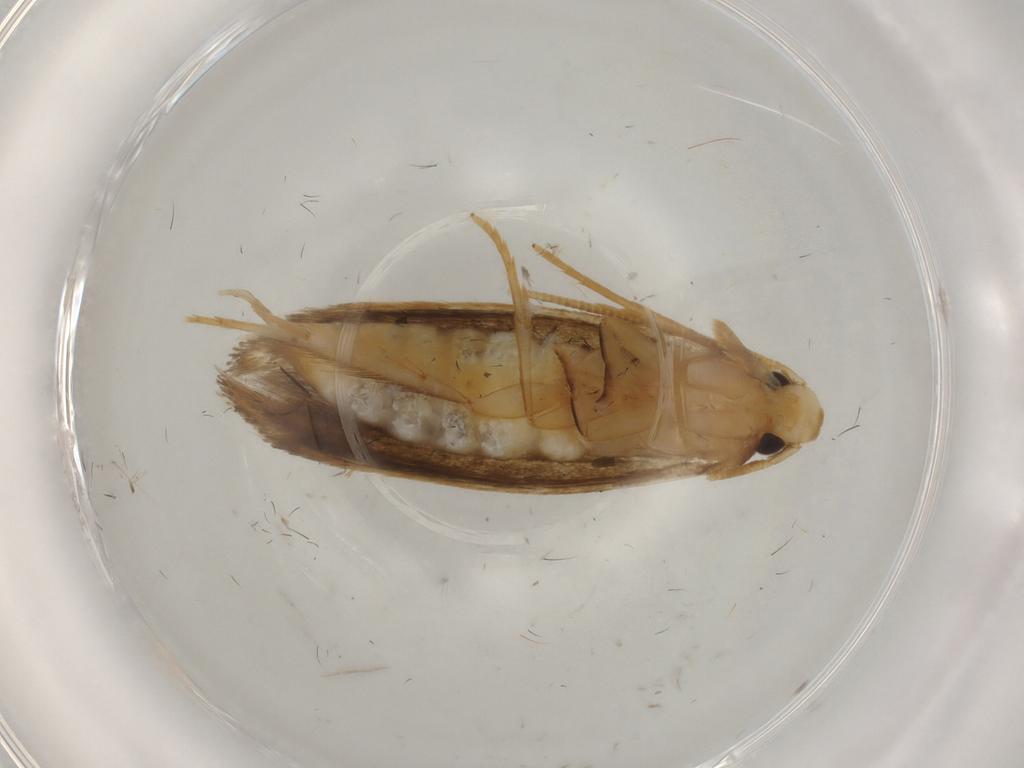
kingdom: Animalia
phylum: Arthropoda
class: Insecta
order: Lepidoptera
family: Tineidae
